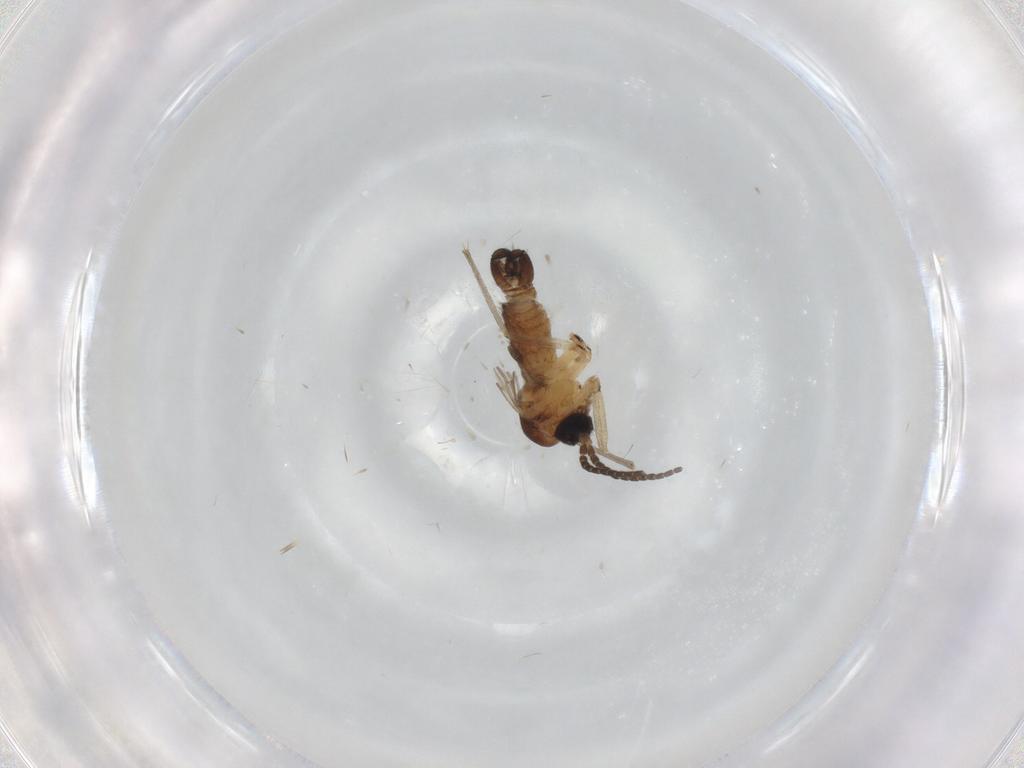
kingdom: Animalia
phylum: Arthropoda
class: Insecta
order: Diptera
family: Sciaridae
